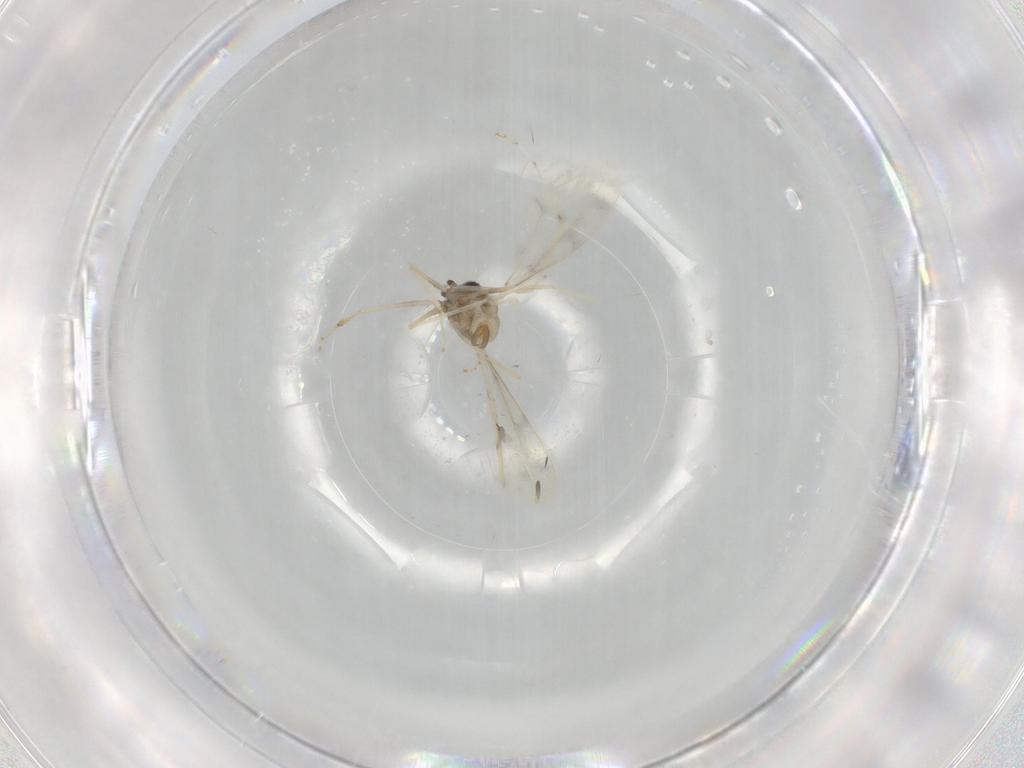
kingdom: Animalia
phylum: Arthropoda
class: Insecta
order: Diptera
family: Cecidomyiidae
